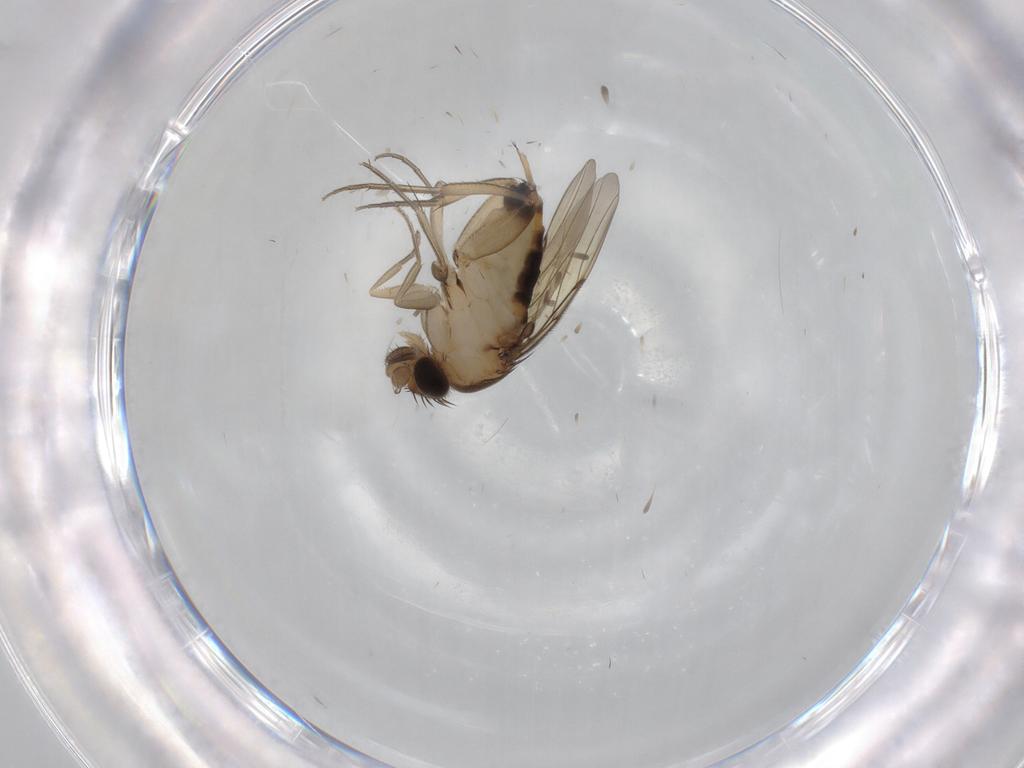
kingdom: Animalia
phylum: Arthropoda
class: Insecta
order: Diptera
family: Phoridae
